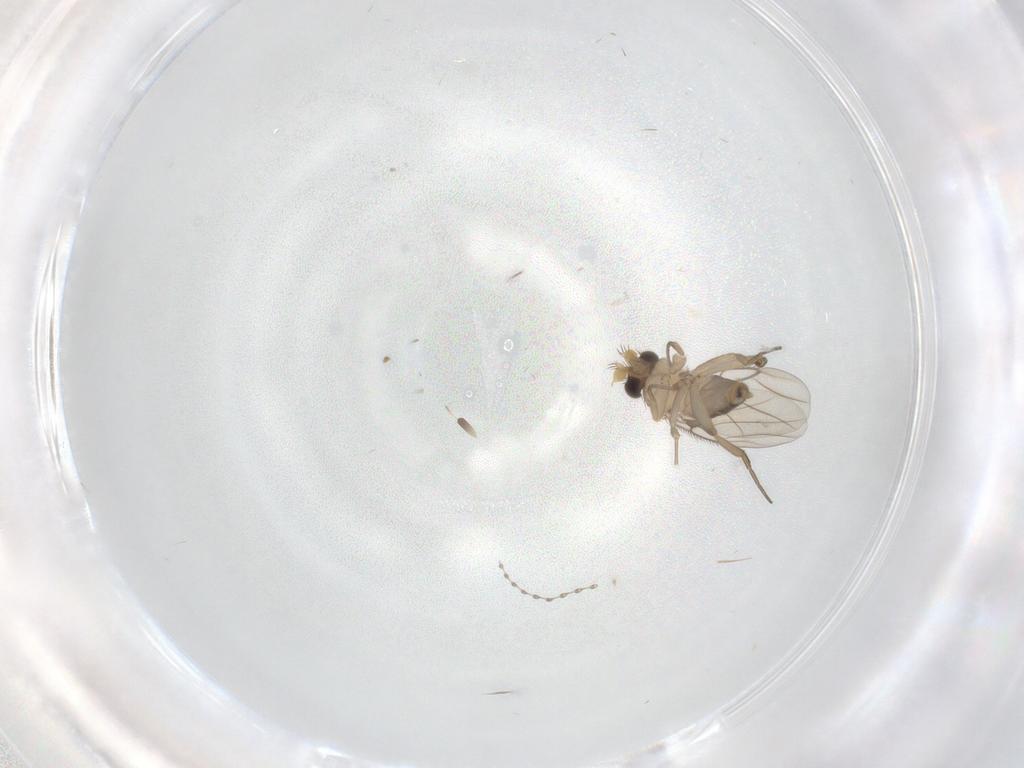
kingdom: Animalia
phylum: Arthropoda
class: Insecta
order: Diptera
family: Phoridae
